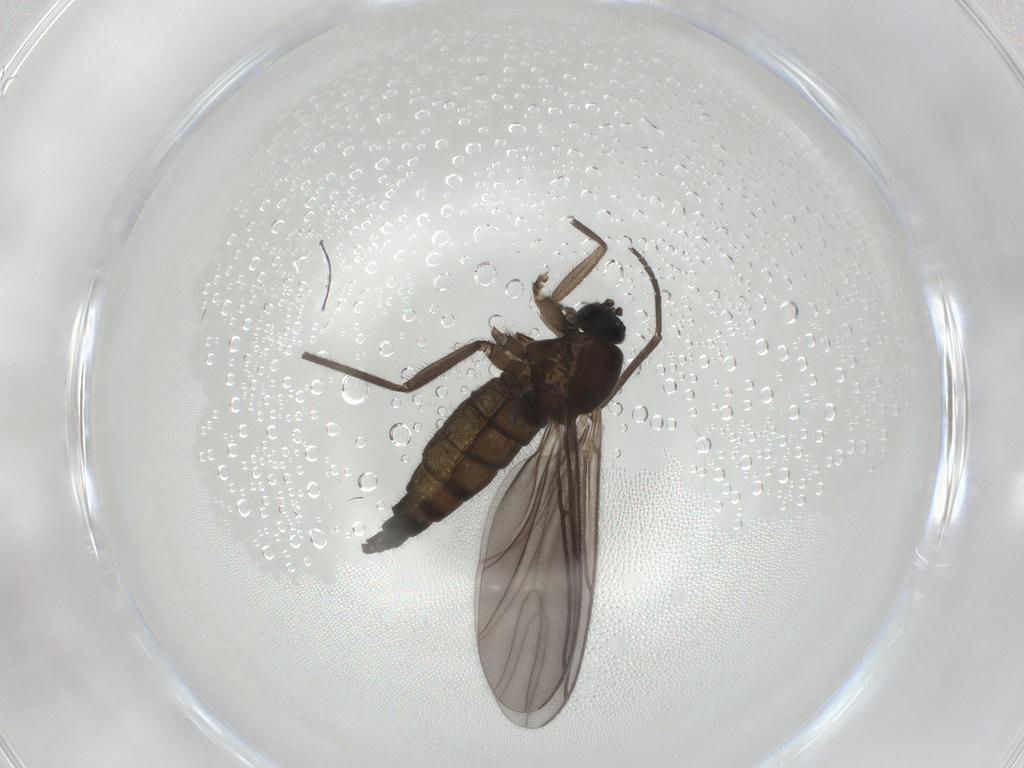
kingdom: Animalia
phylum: Arthropoda
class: Insecta
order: Diptera
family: Sciaridae
